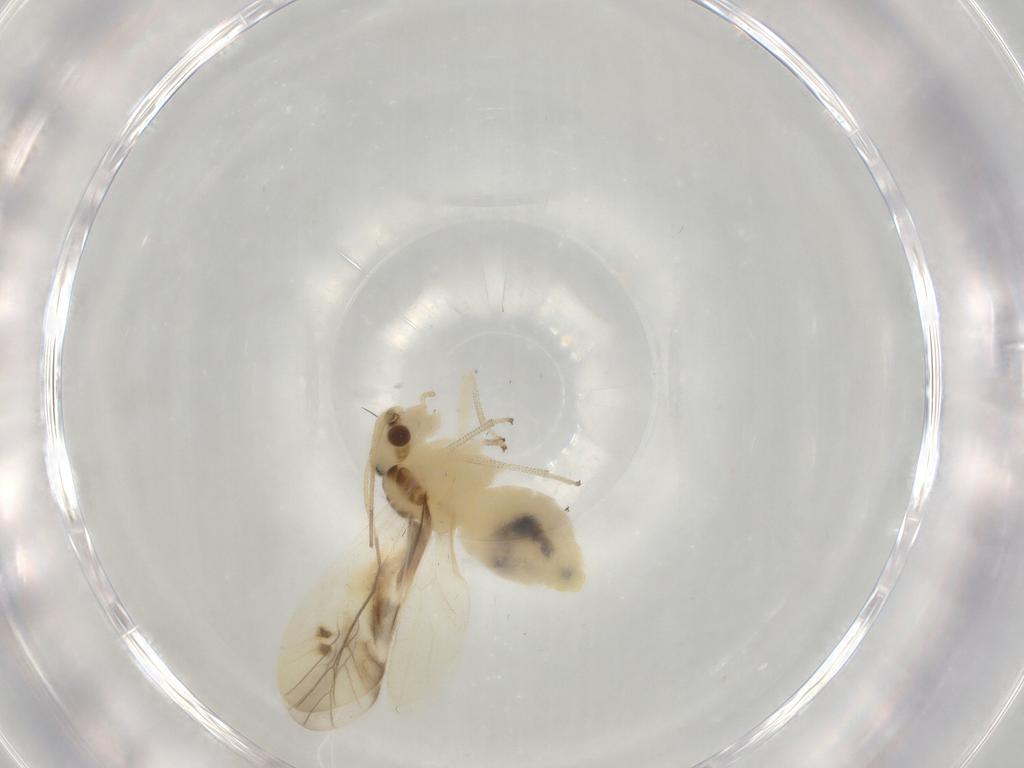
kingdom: Animalia
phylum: Arthropoda
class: Insecta
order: Psocodea
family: Caeciliusidae
